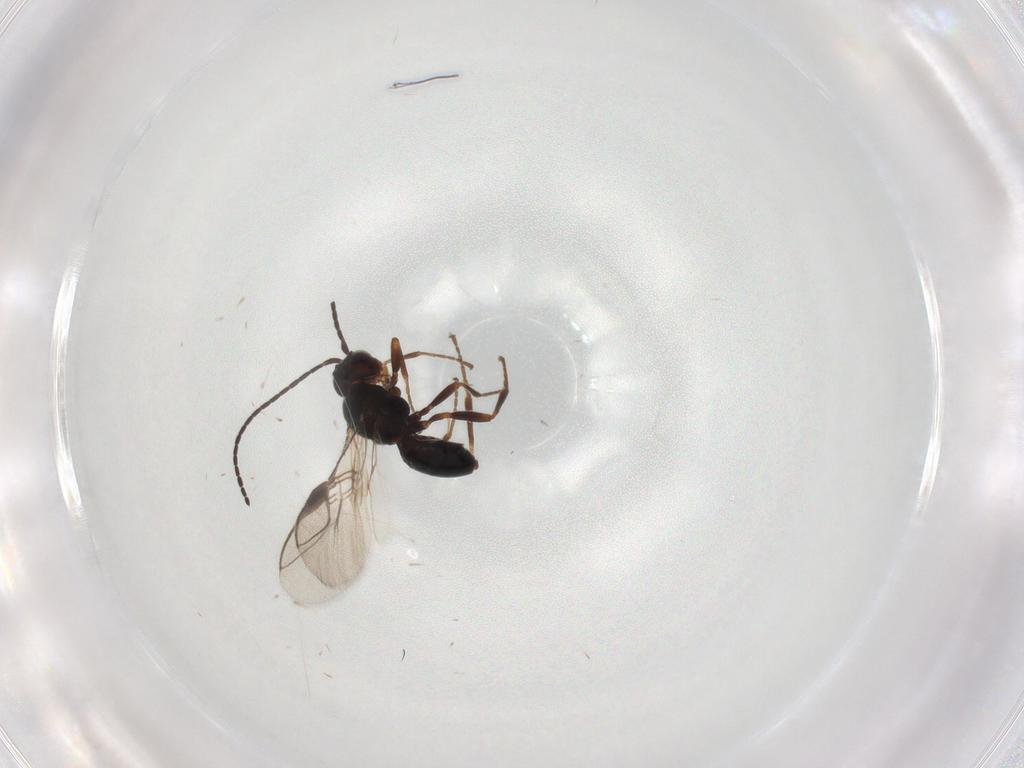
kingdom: Animalia
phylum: Arthropoda
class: Insecta
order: Hymenoptera
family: Braconidae
